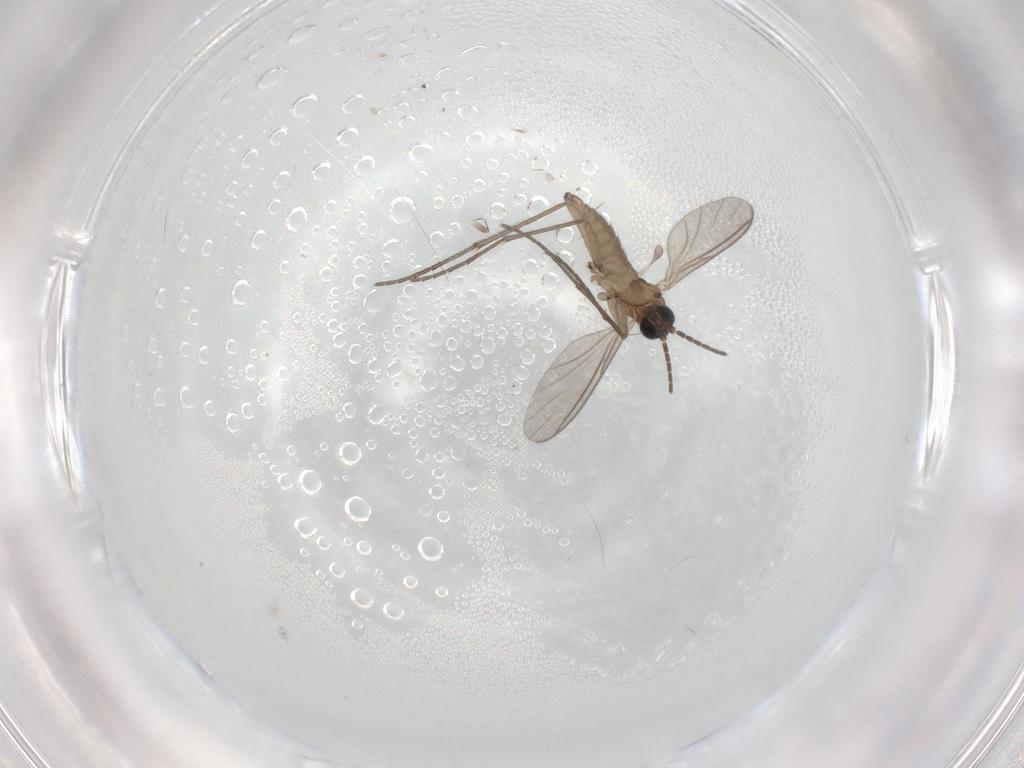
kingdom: Animalia
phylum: Arthropoda
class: Insecta
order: Diptera
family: Sciaridae
